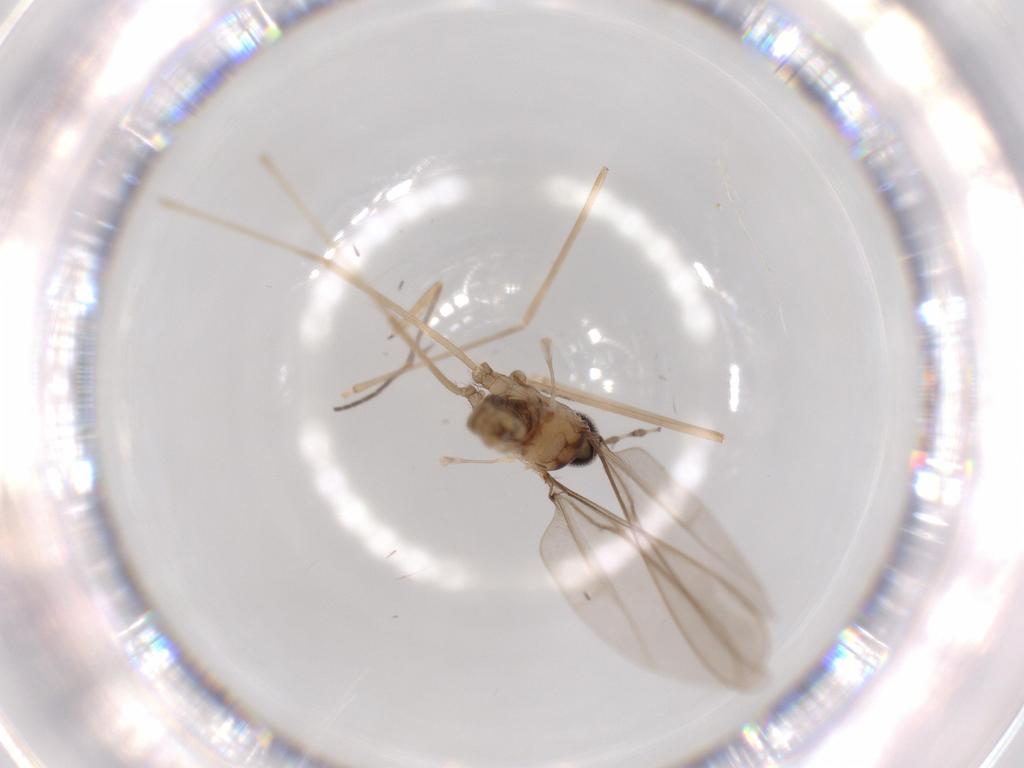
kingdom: Animalia
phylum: Arthropoda
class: Insecta
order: Diptera
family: Cecidomyiidae
